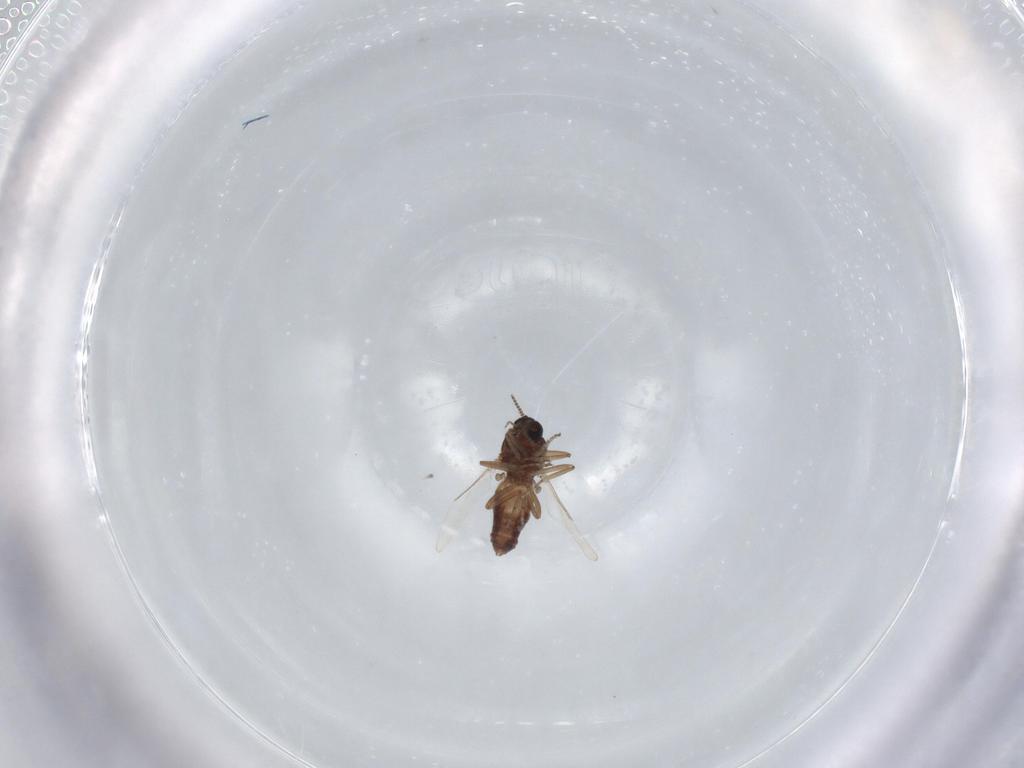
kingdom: Animalia
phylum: Arthropoda
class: Insecta
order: Diptera
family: Ceratopogonidae
